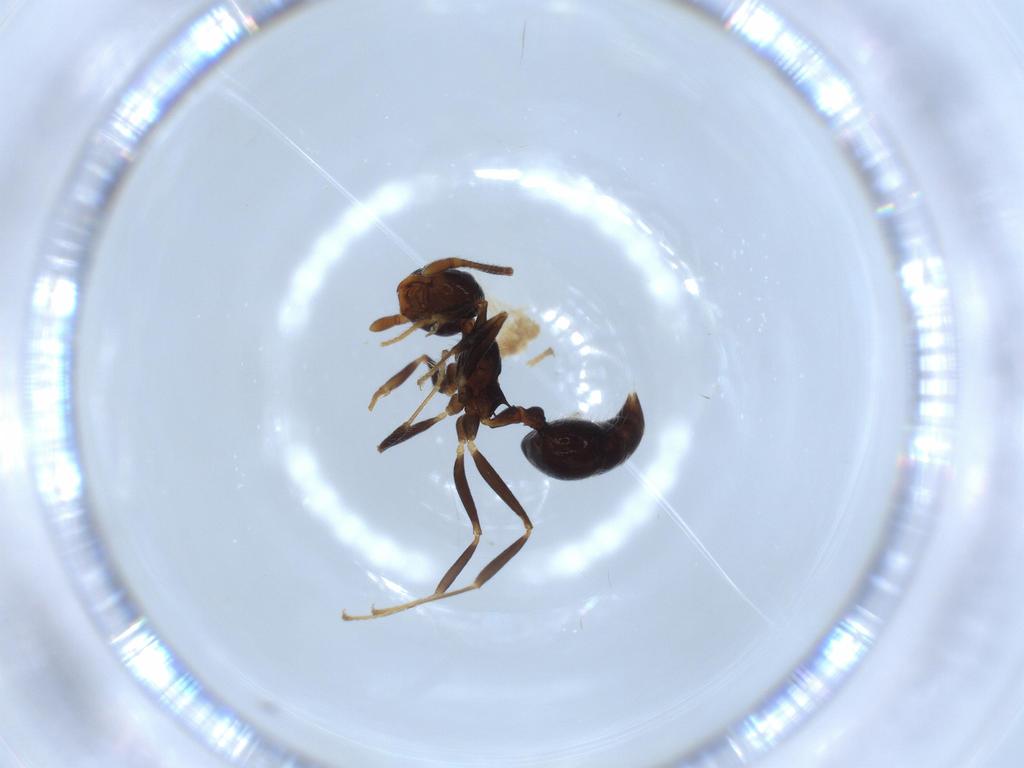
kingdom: Animalia
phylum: Arthropoda
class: Insecta
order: Hymenoptera
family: Formicidae
